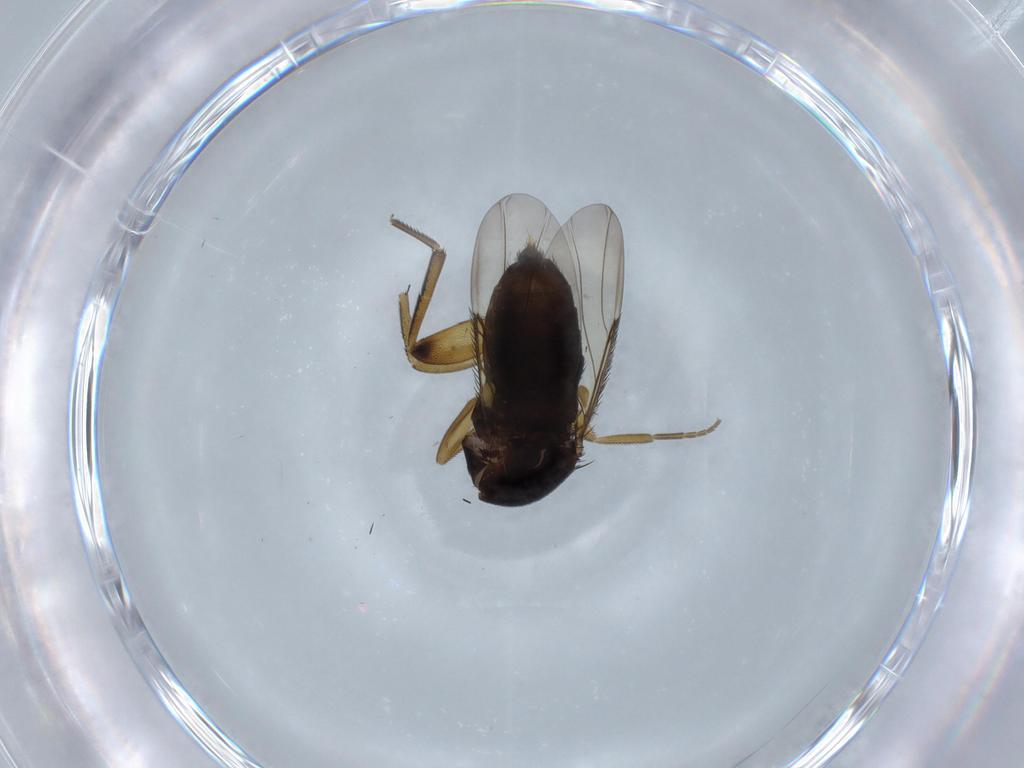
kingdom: Animalia
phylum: Arthropoda
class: Insecta
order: Diptera
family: Phoridae
